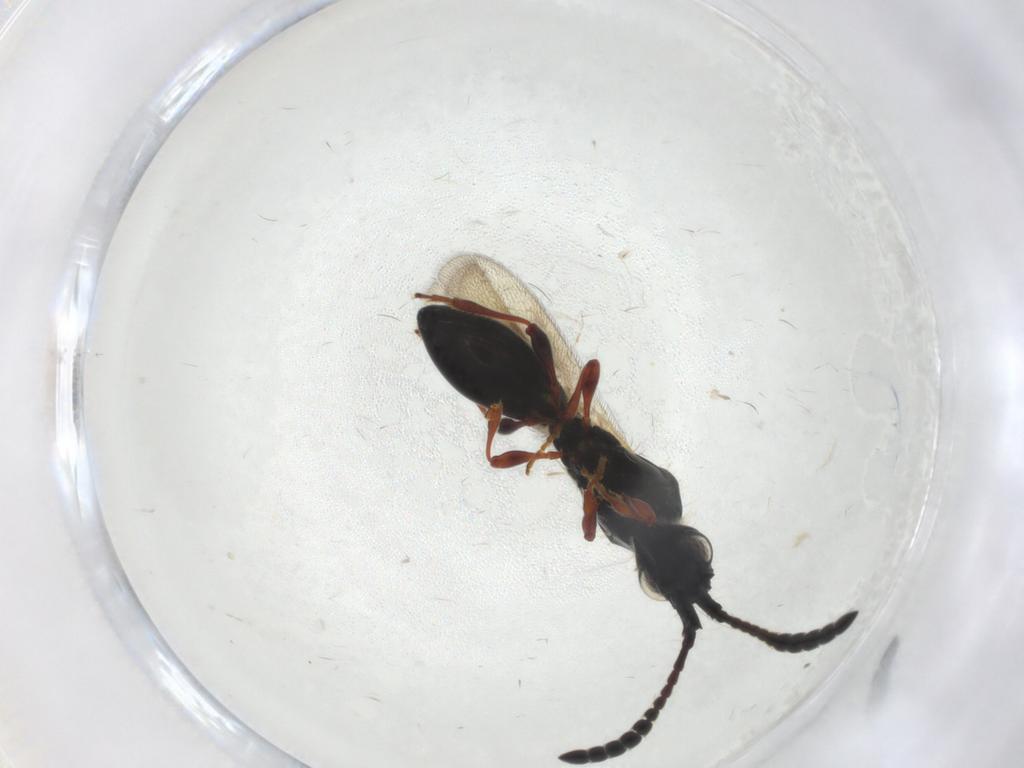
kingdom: Animalia
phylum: Arthropoda
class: Insecta
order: Hymenoptera
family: Diapriidae
